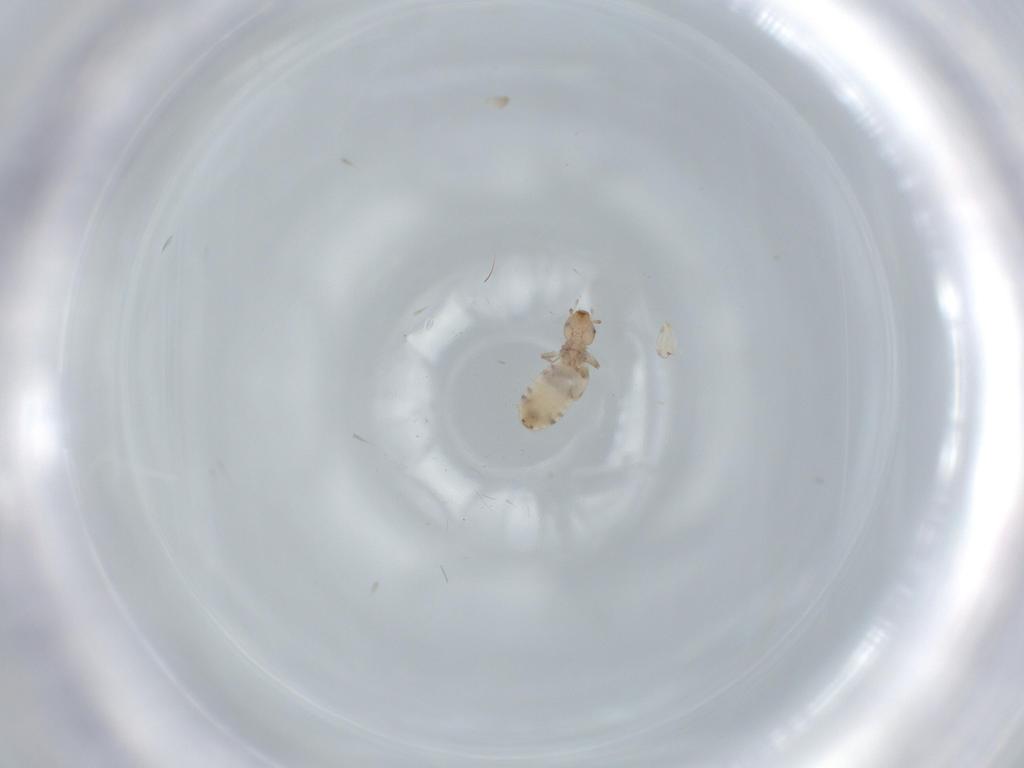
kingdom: Animalia
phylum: Arthropoda
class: Insecta
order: Psocodea
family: Liposcelididae
